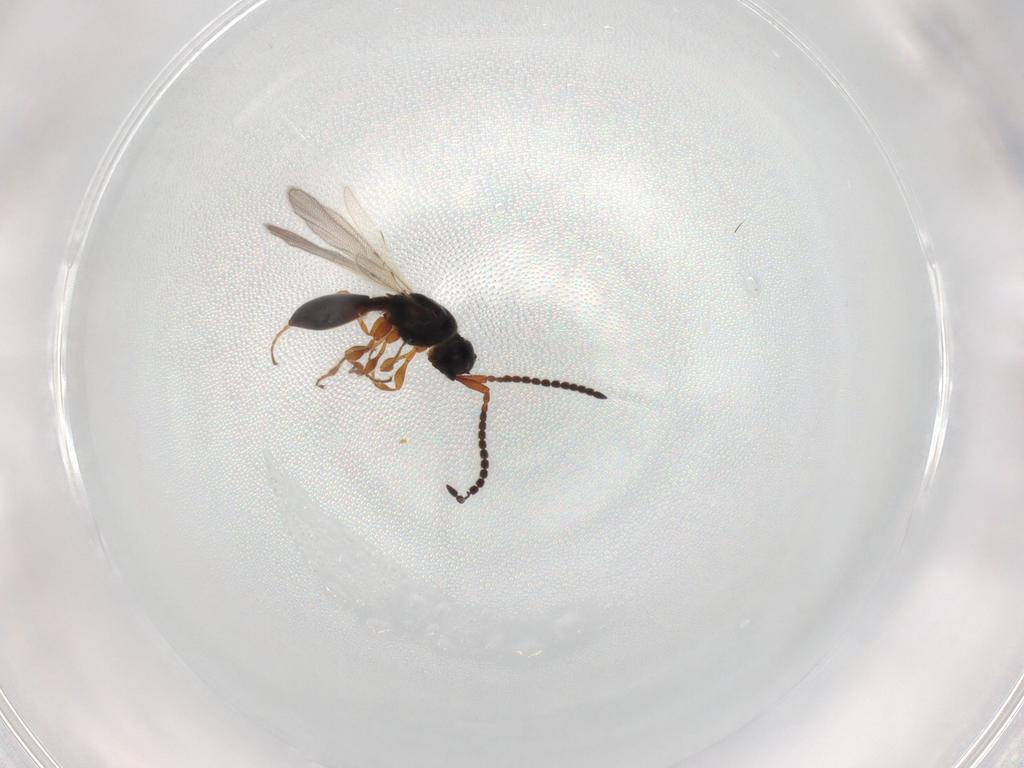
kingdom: Animalia
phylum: Arthropoda
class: Insecta
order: Hymenoptera
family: Diapriidae
